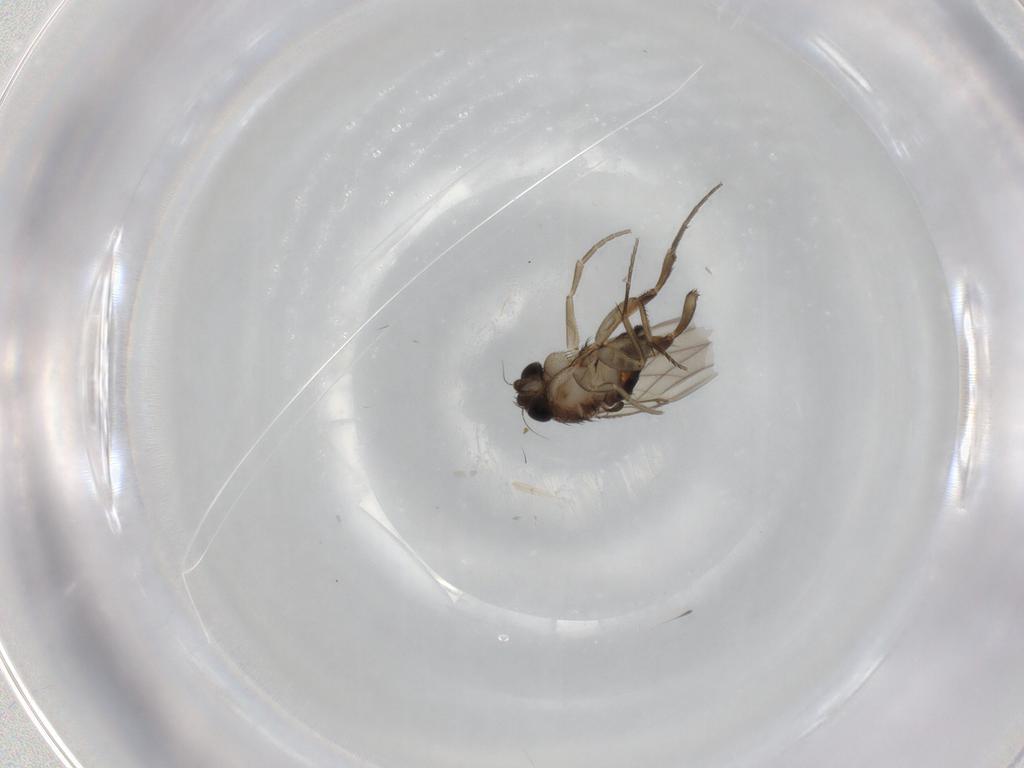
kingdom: Animalia
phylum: Arthropoda
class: Insecta
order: Diptera
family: Phoridae
